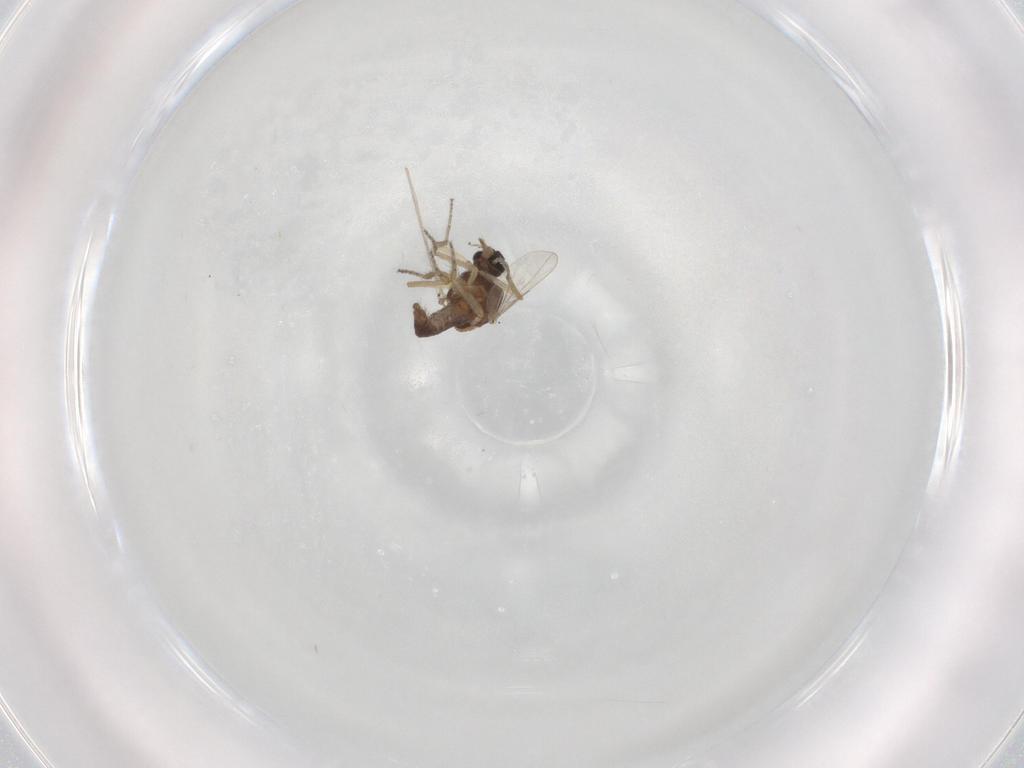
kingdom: Animalia
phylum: Arthropoda
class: Insecta
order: Diptera
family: Ceratopogonidae
